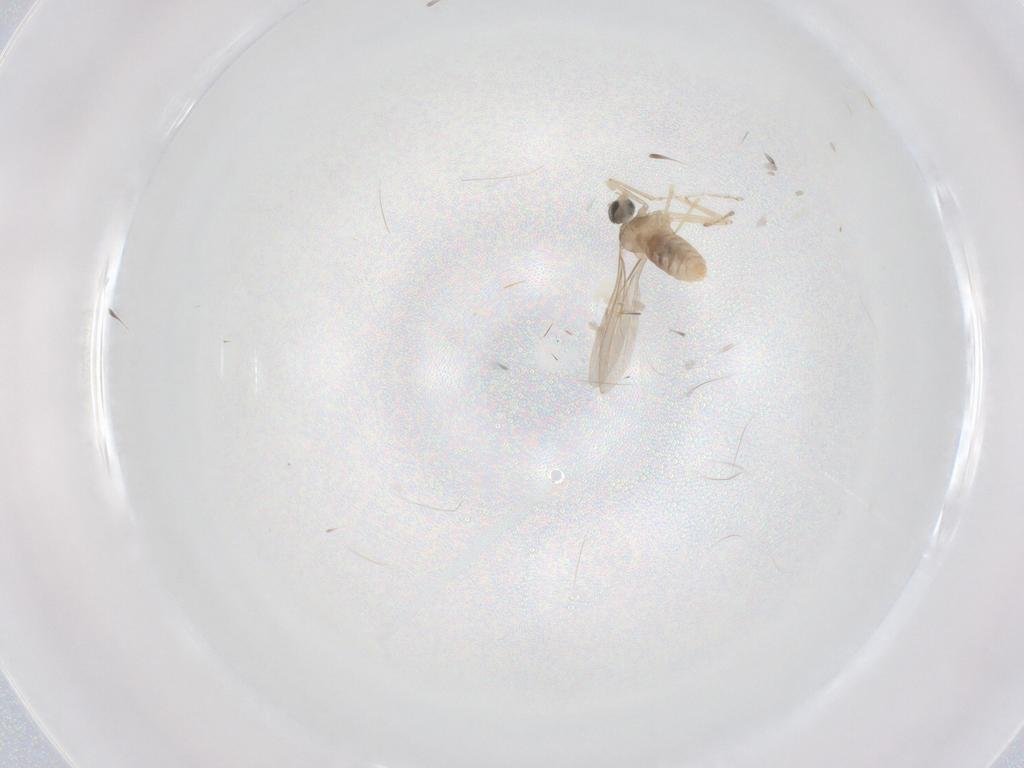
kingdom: Animalia
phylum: Arthropoda
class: Insecta
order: Diptera
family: Cecidomyiidae
